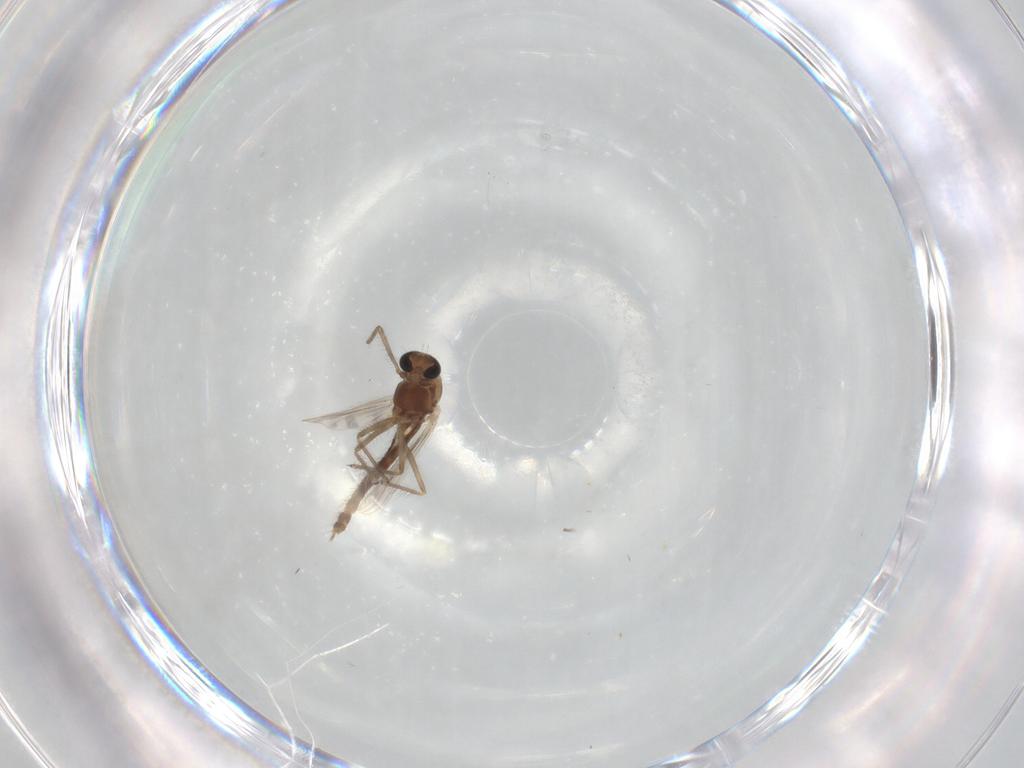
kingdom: Animalia
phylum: Arthropoda
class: Insecta
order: Diptera
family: Chironomidae
